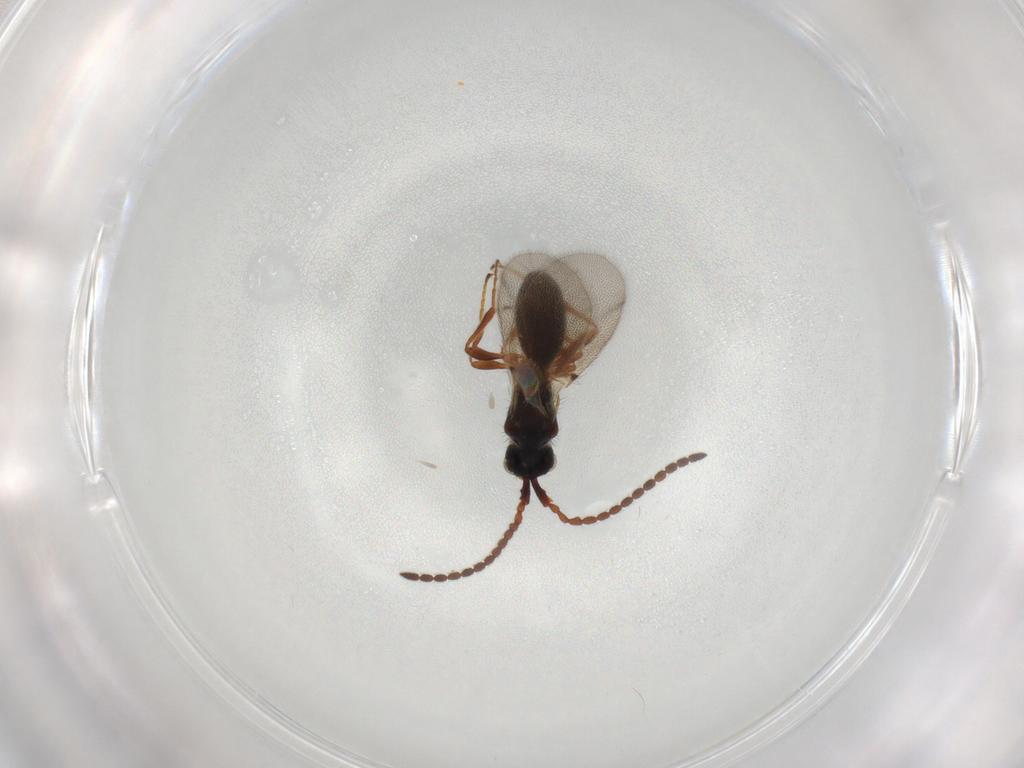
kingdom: Animalia
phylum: Arthropoda
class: Insecta
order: Hymenoptera
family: Diapriidae
